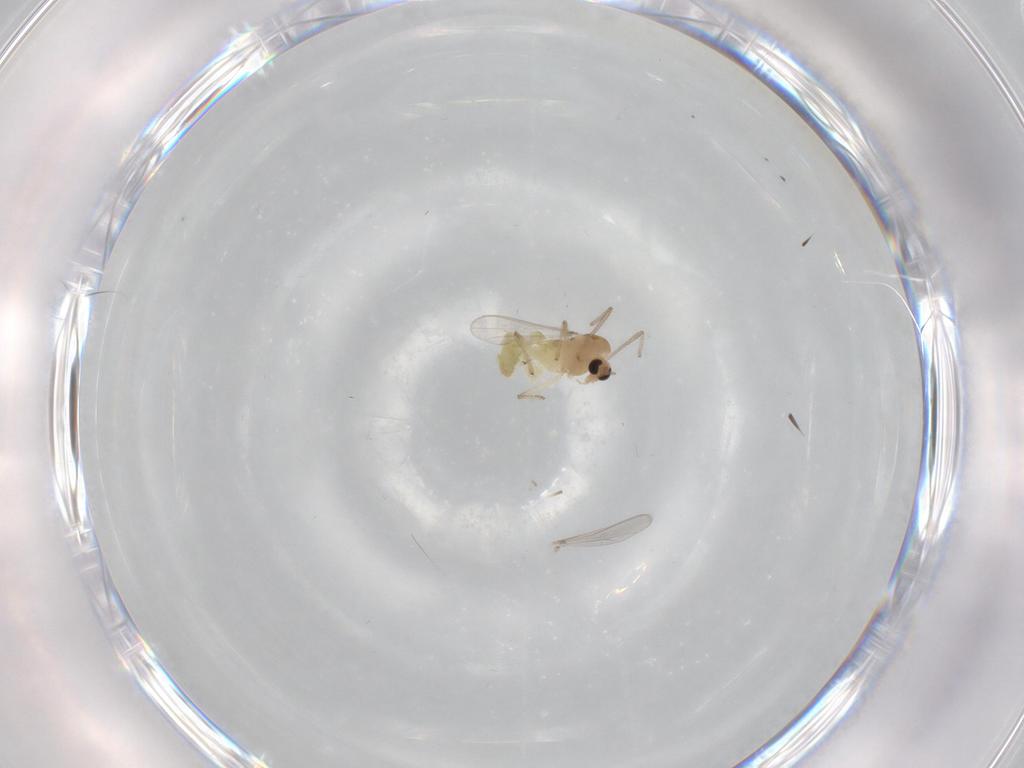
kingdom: Animalia
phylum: Arthropoda
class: Insecta
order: Diptera
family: Chironomidae
